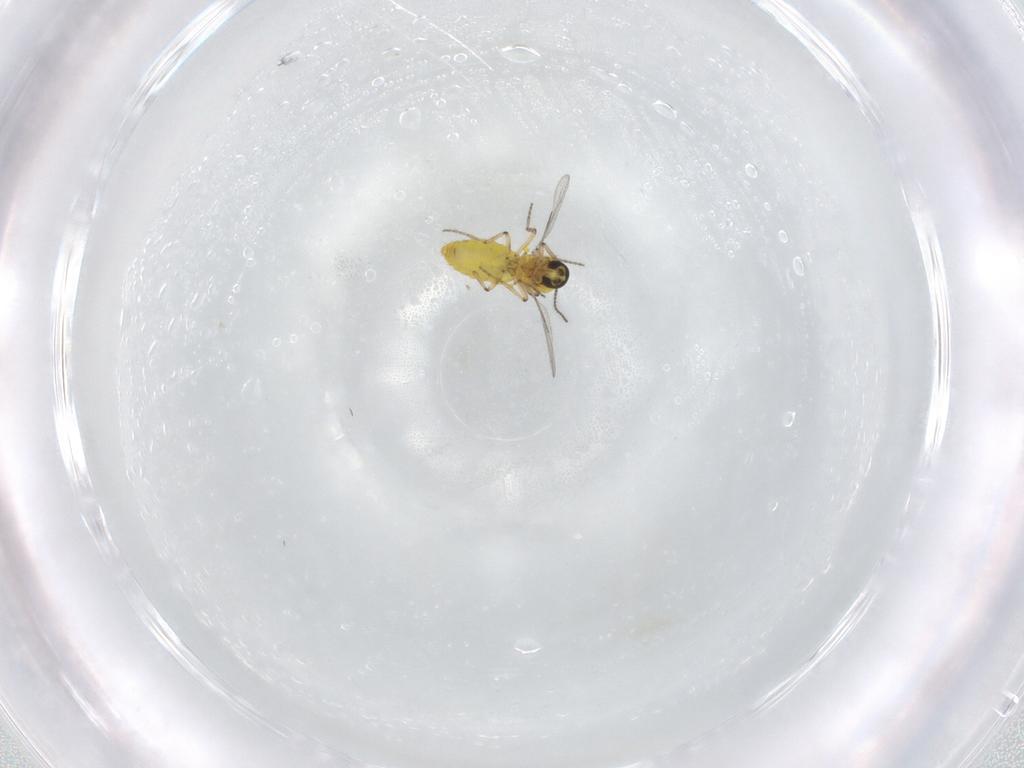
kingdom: Animalia
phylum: Arthropoda
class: Insecta
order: Diptera
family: Ceratopogonidae
